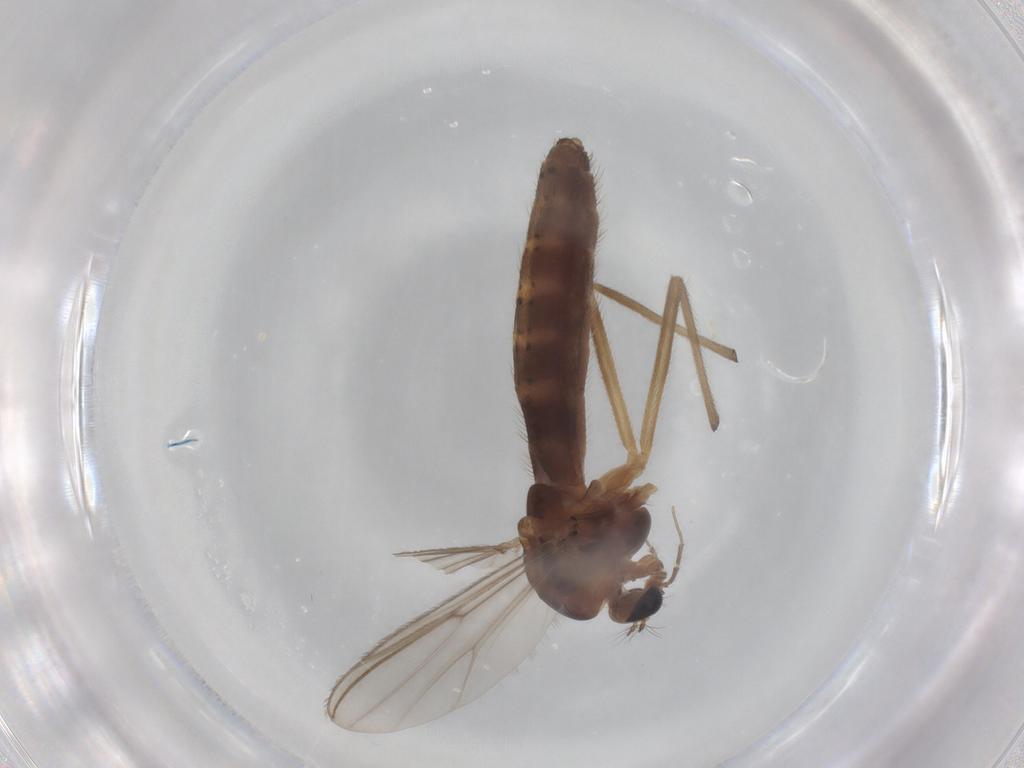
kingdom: Animalia
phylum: Arthropoda
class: Insecta
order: Diptera
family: Chironomidae
